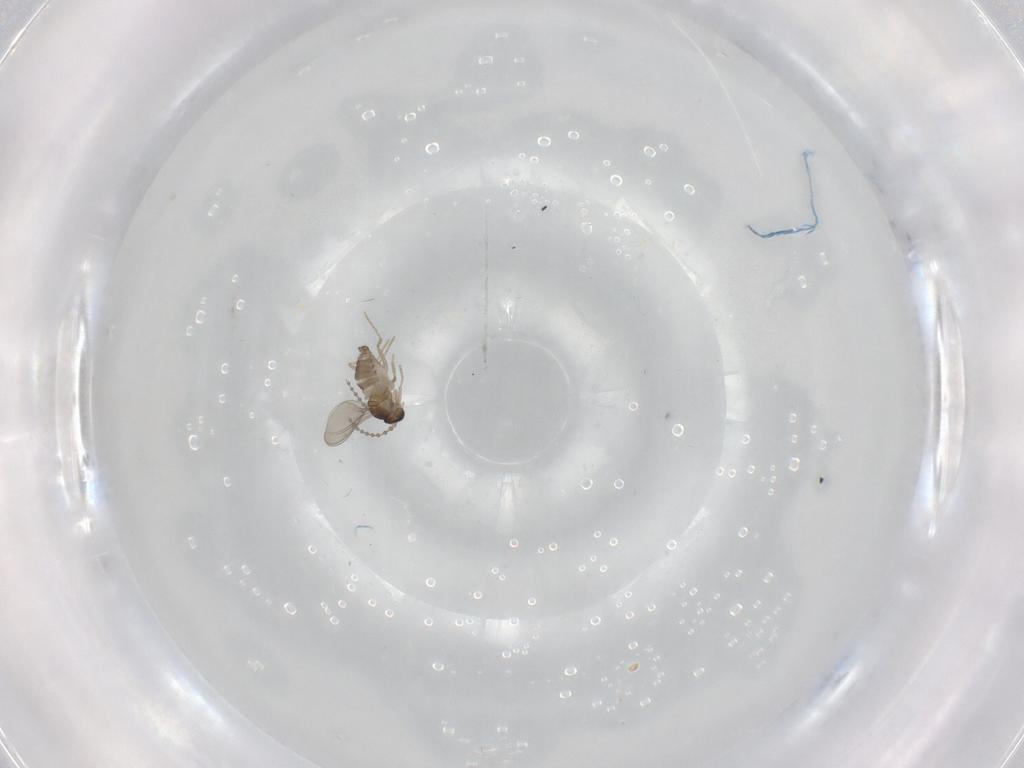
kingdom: Animalia
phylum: Arthropoda
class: Insecta
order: Diptera
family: Cecidomyiidae
